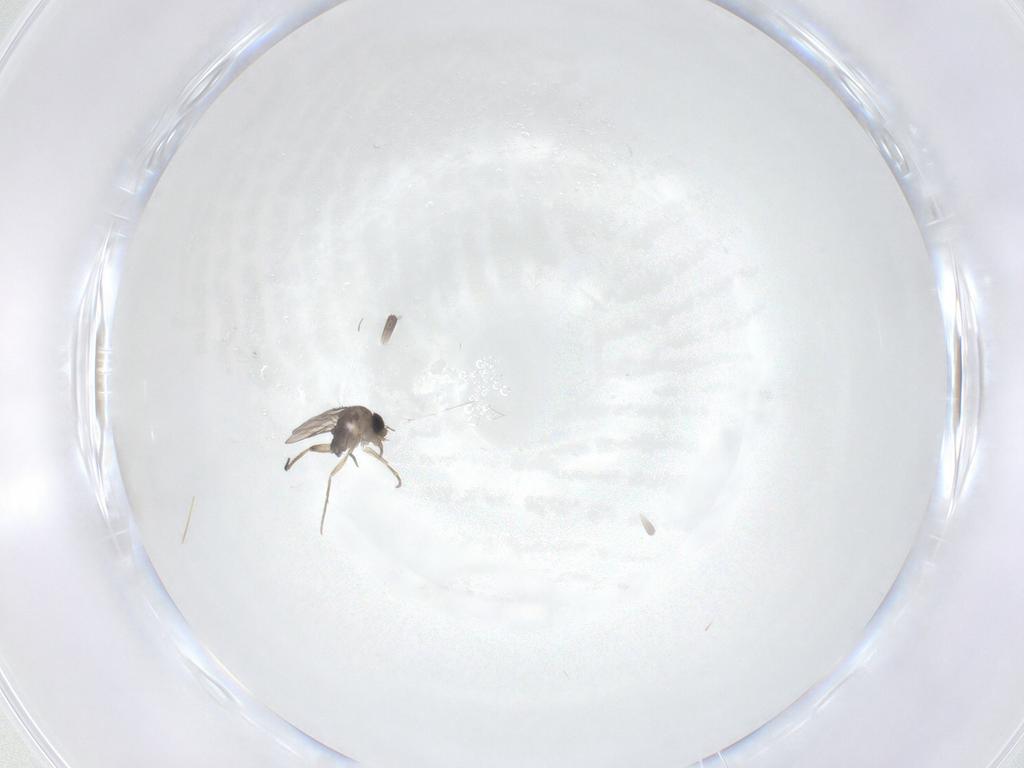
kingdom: Animalia
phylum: Arthropoda
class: Insecta
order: Diptera
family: Phoridae
